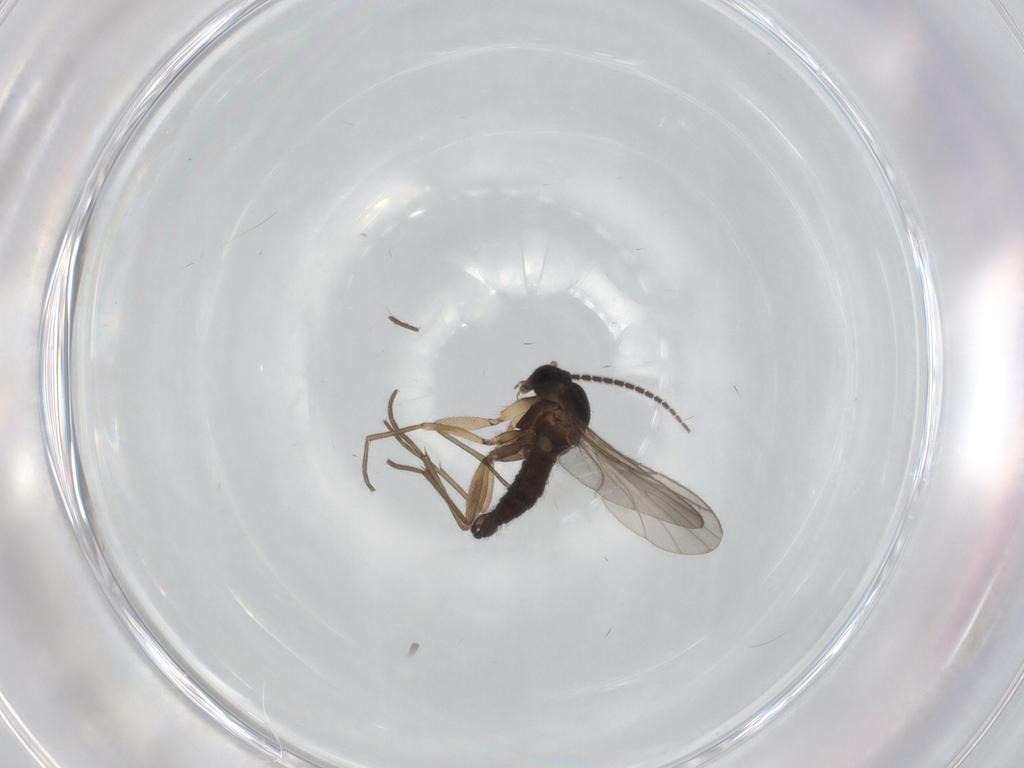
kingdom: Animalia
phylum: Arthropoda
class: Insecta
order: Diptera
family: Sciaridae
